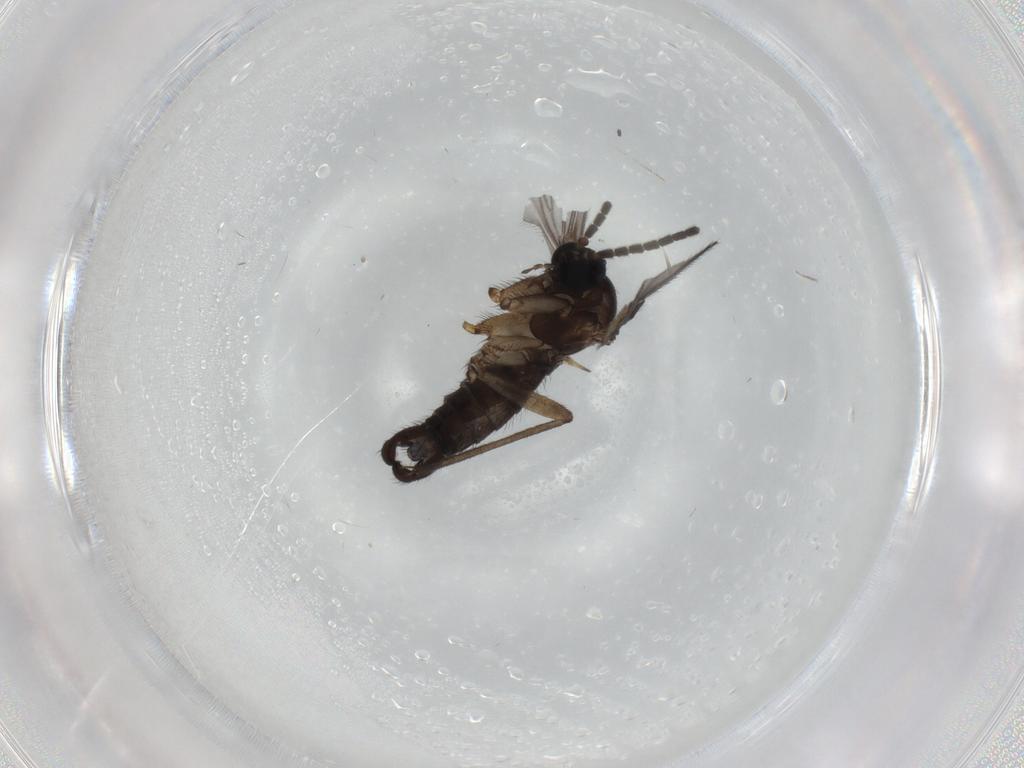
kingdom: Animalia
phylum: Arthropoda
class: Insecta
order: Diptera
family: Sciaridae
